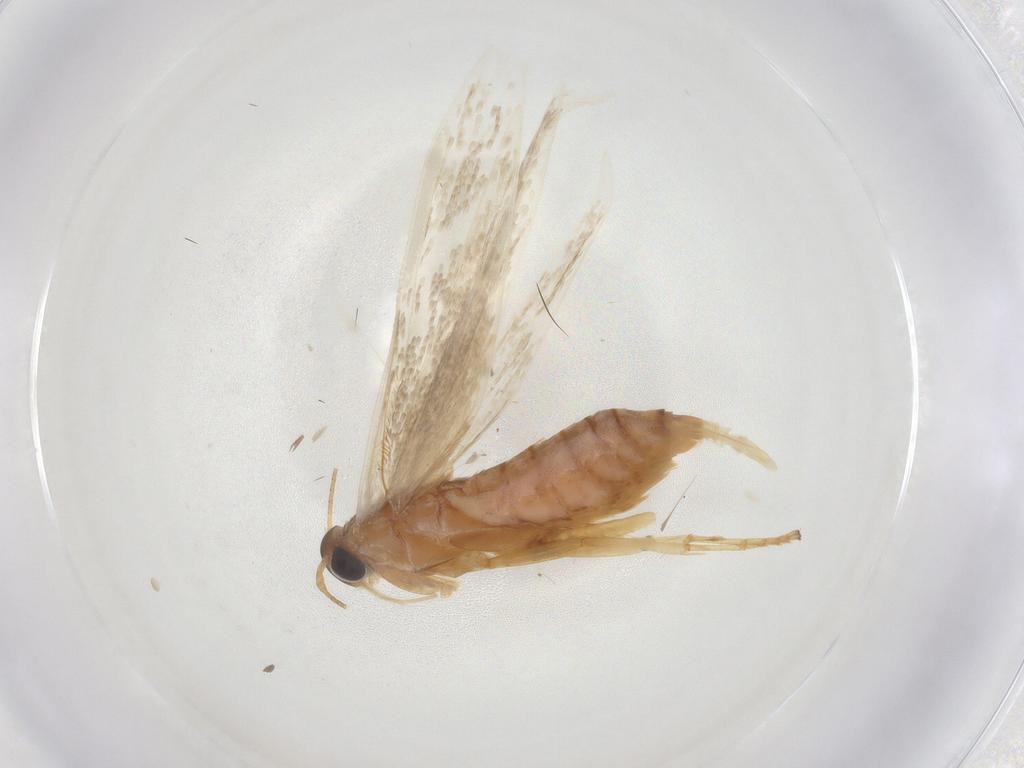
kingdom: Animalia
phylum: Arthropoda
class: Insecta
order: Lepidoptera
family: Blastobasidae
